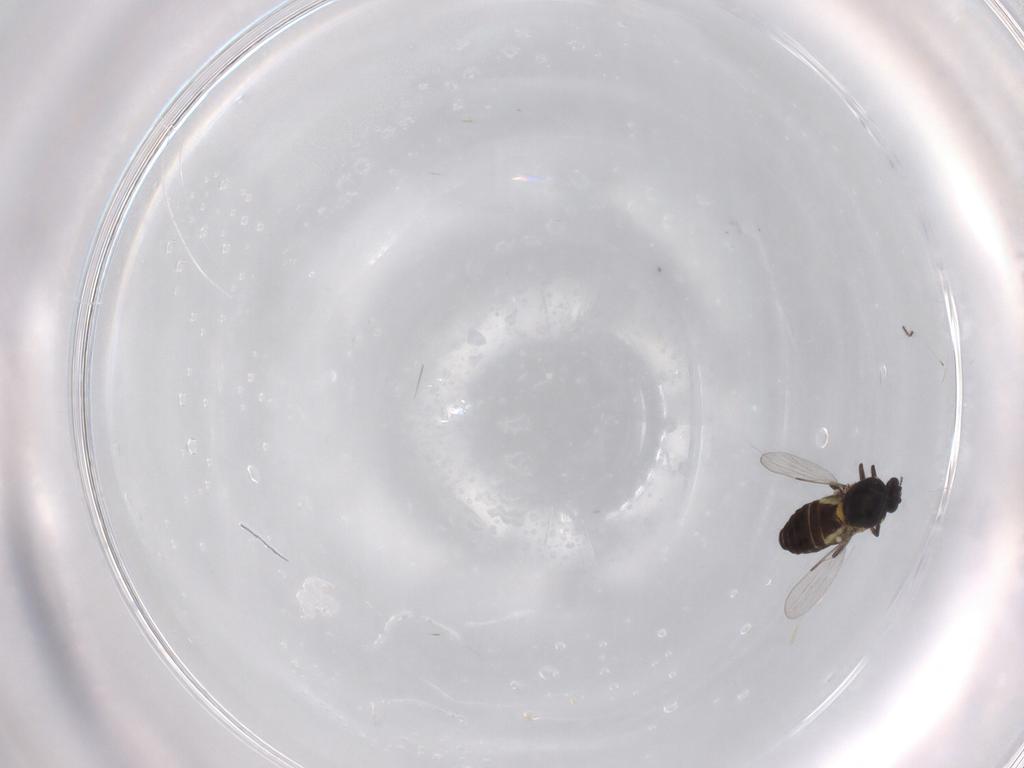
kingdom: Animalia
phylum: Arthropoda
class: Insecta
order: Diptera
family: Ceratopogonidae
